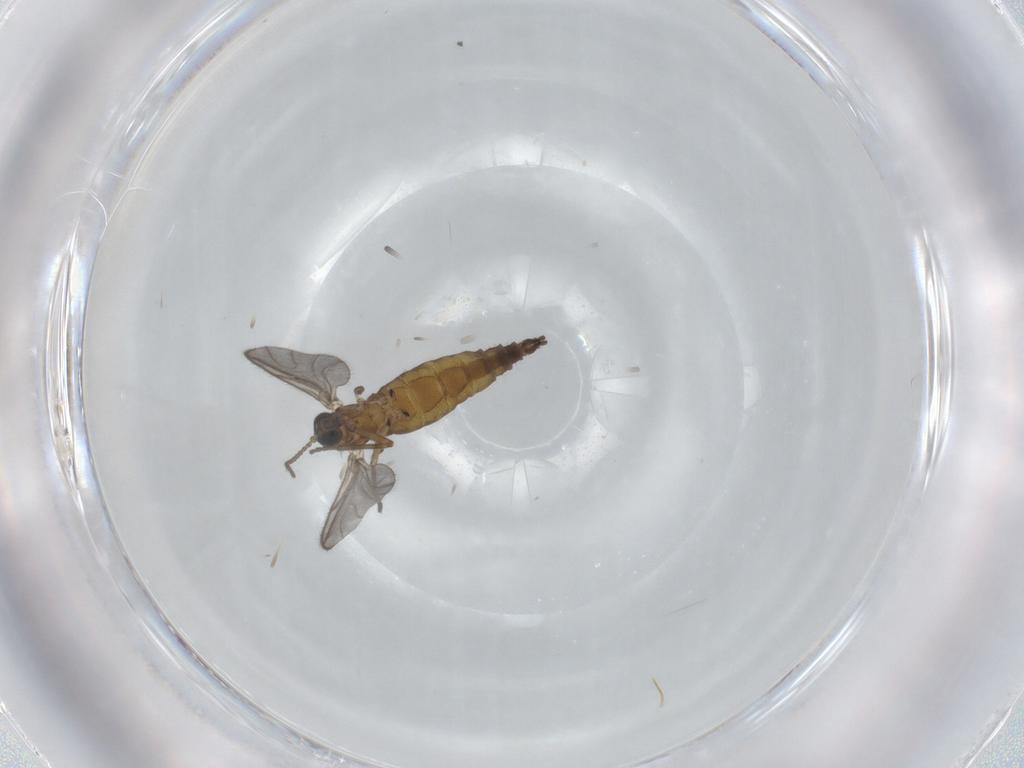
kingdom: Animalia
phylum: Arthropoda
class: Insecta
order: Diptera
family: Sciaridae
